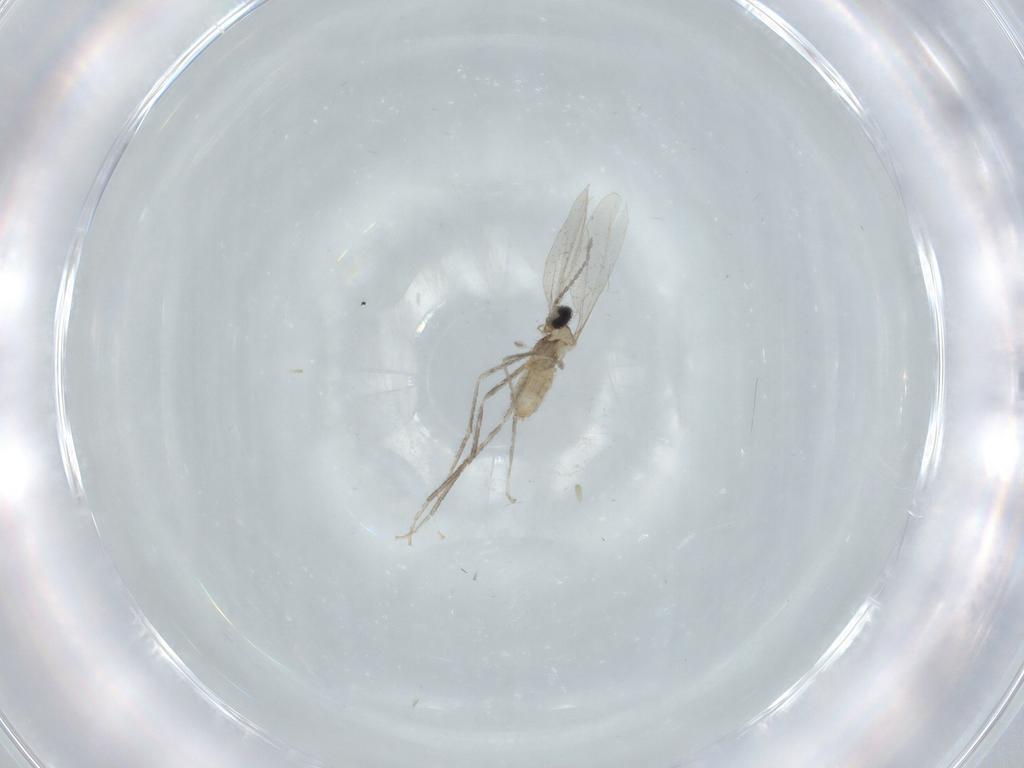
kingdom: Animalia
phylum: Arthropoda
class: Insecta
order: Diptera
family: Cecidomyiidae
